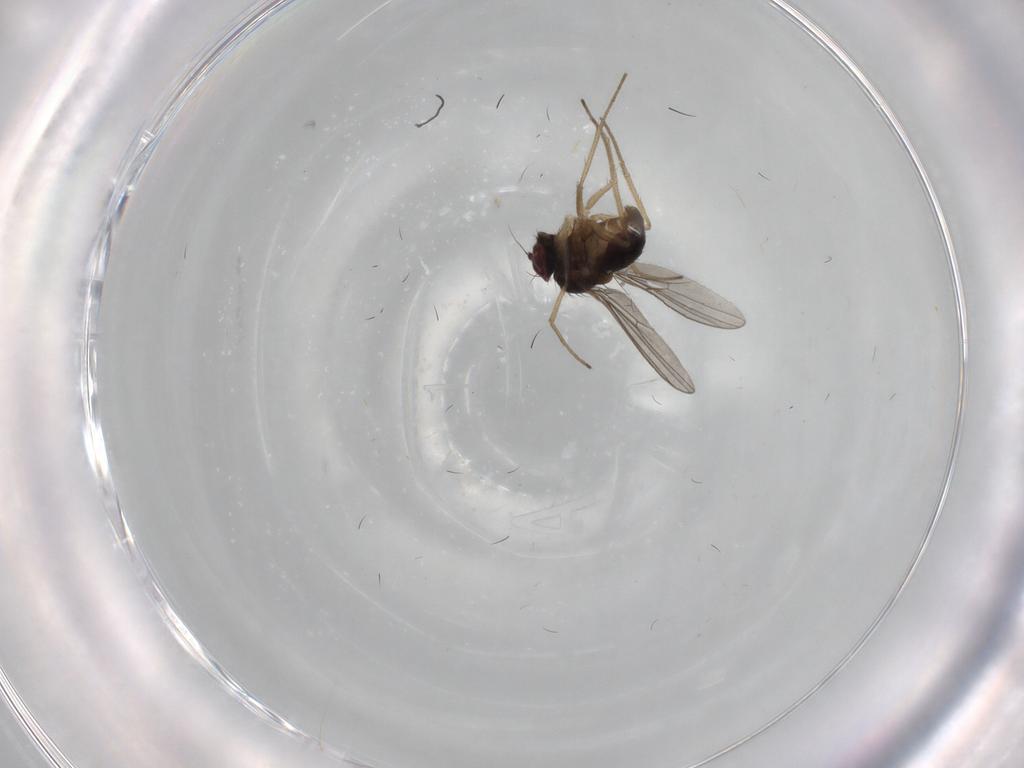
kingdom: Animalia
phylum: Arthropoda
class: Insecta
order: Diptera
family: Dolichopodidae
